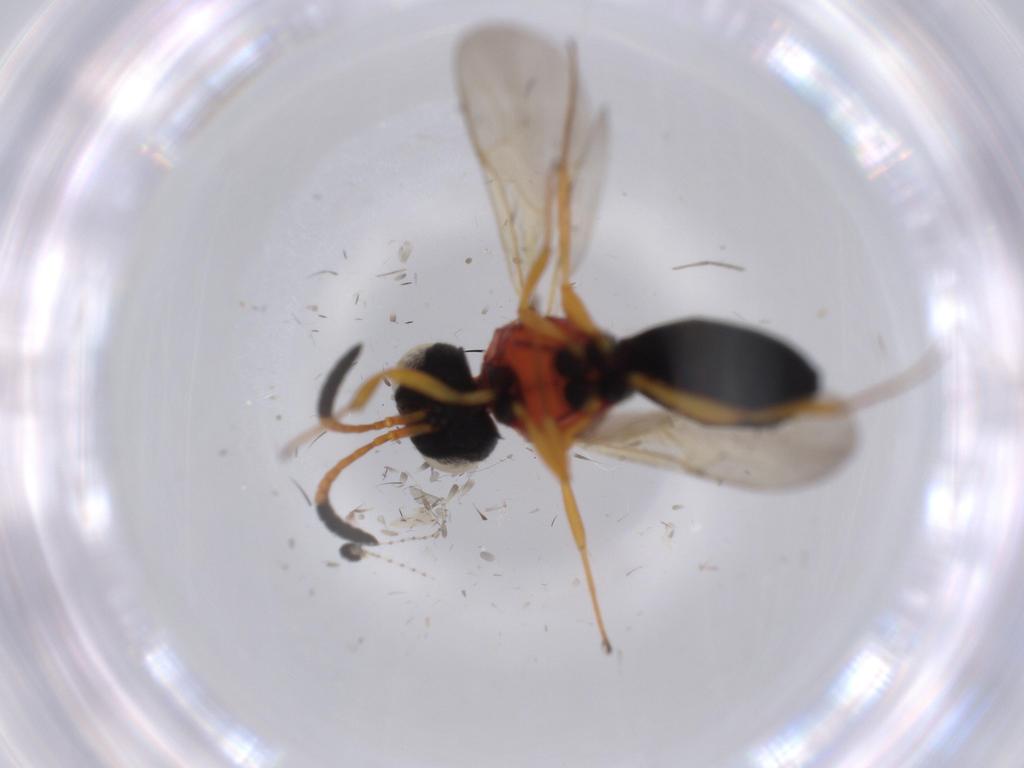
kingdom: Animalia
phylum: Arthropoda
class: Insecta
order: Hymenoptera
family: Scelionidae
